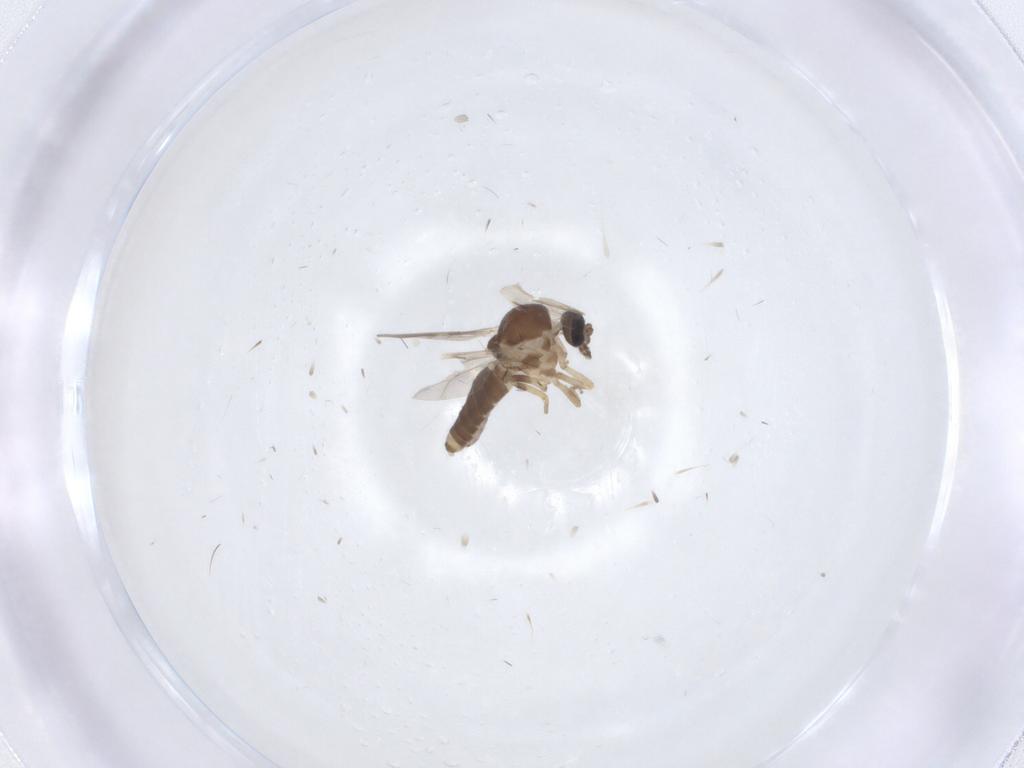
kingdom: Animalia
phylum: Arthropoda
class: Insecta
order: Diptera
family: Ceratopogonidae
